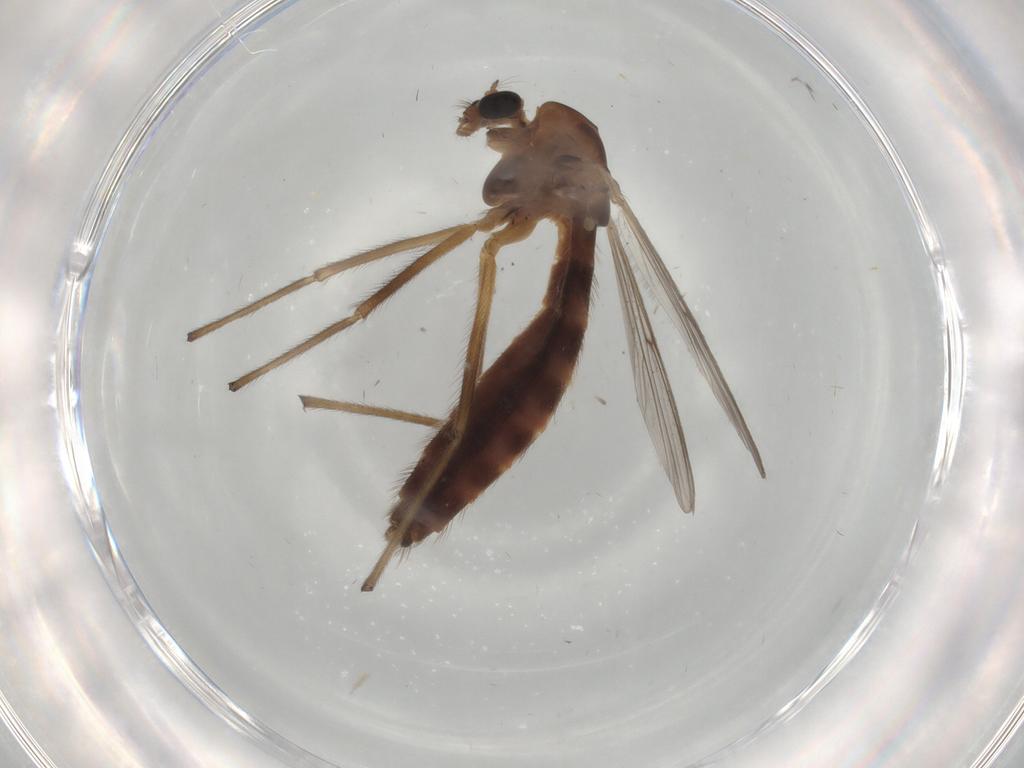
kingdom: Animalia
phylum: Arthropoda
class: Insecta
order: Diptera
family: Chironomidae
